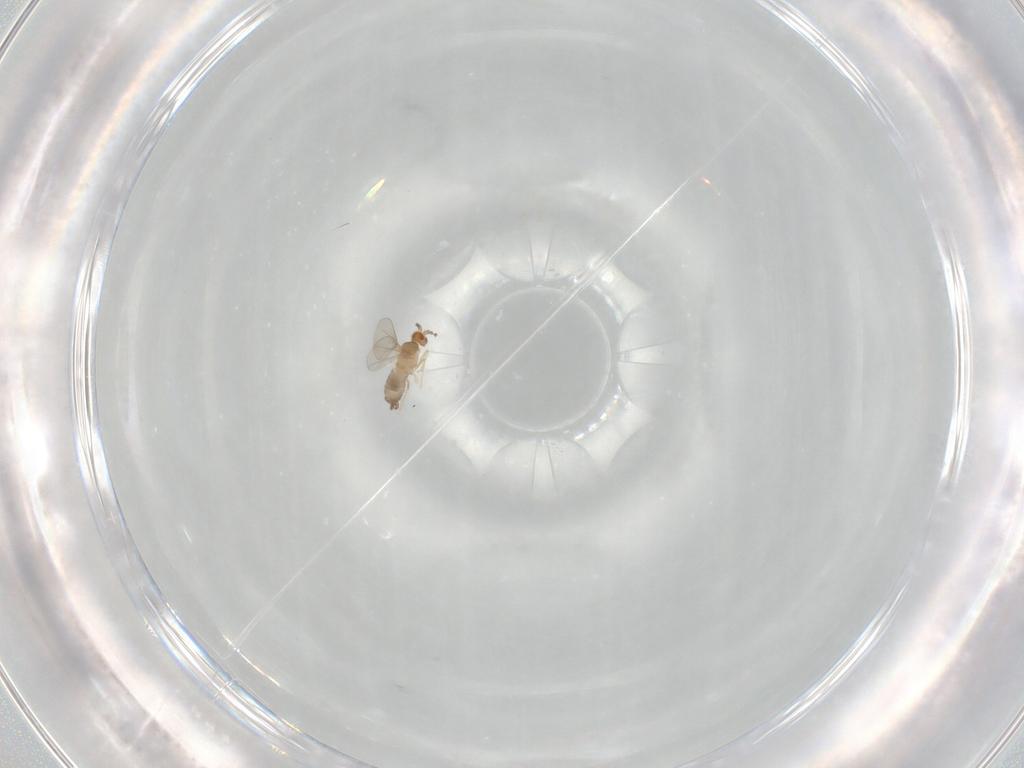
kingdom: Animalia
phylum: Arthropoda
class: Insecta
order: Diptera
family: Cecidomyiidae
